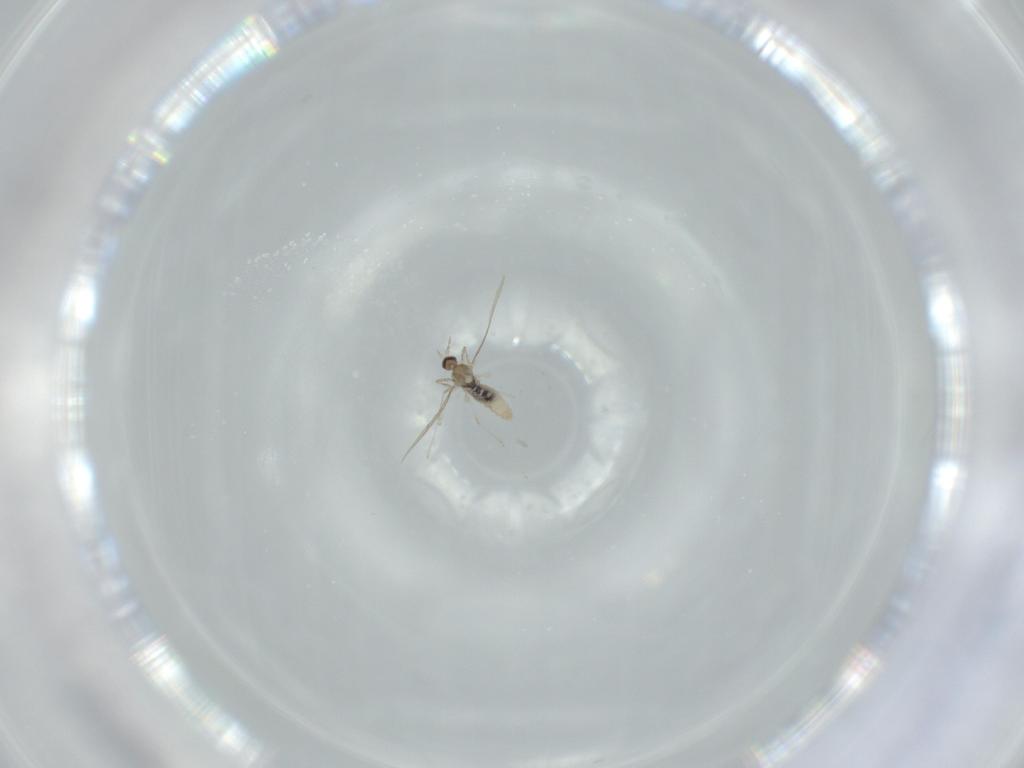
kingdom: Animalia
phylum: Arthropoda
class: Insecta
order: Diptera
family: Cecidomyiidae
